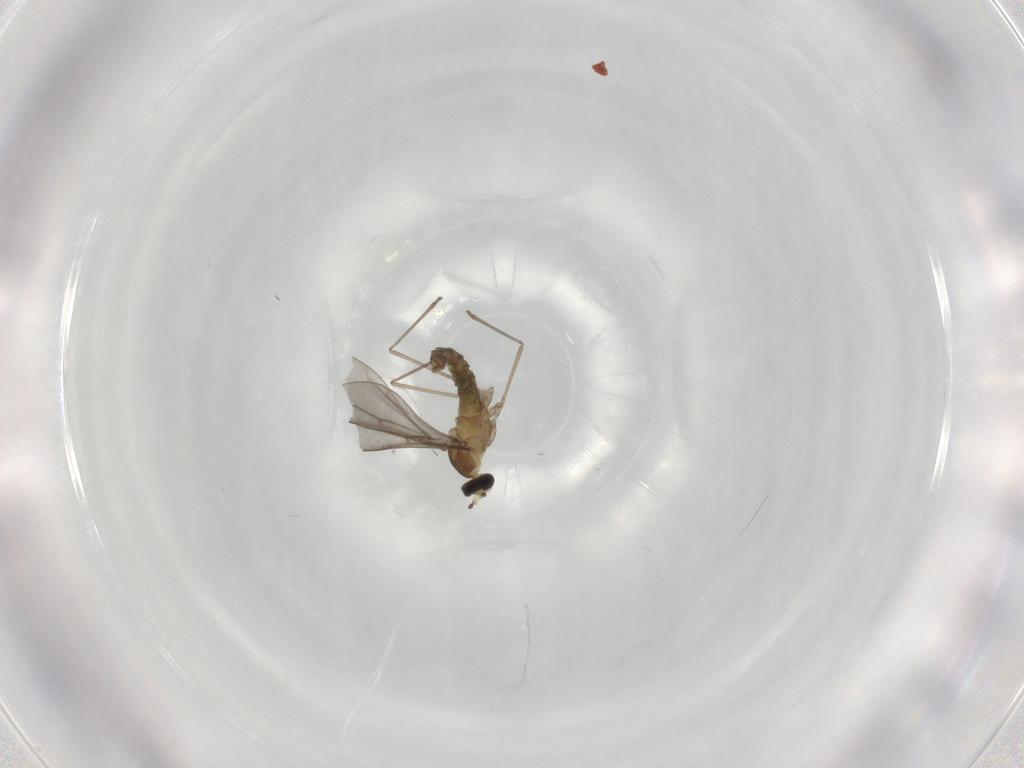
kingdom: Animalia
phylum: Arthropoda
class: Insecta
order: Diptera
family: Cecidomyiidae
